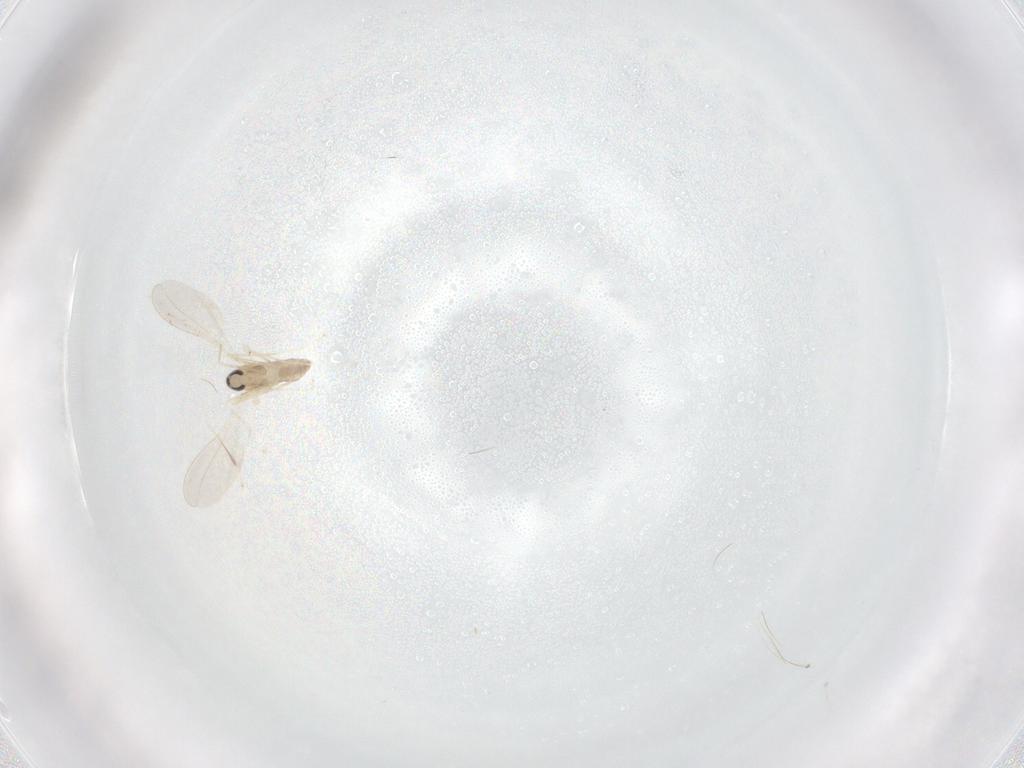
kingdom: Animalia
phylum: Arthropoda
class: Insecta
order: Diptera
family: Cecidomyiidae
